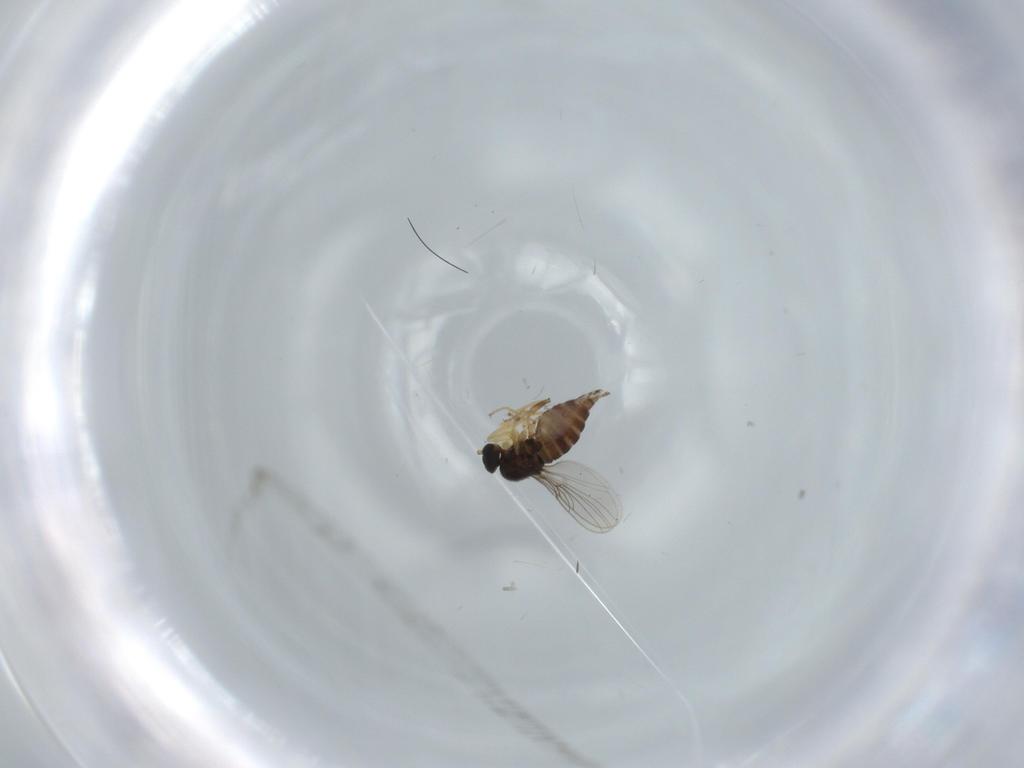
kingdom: Animalia
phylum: Arthropoda
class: Insecta
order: Diptera
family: Hybotidae
